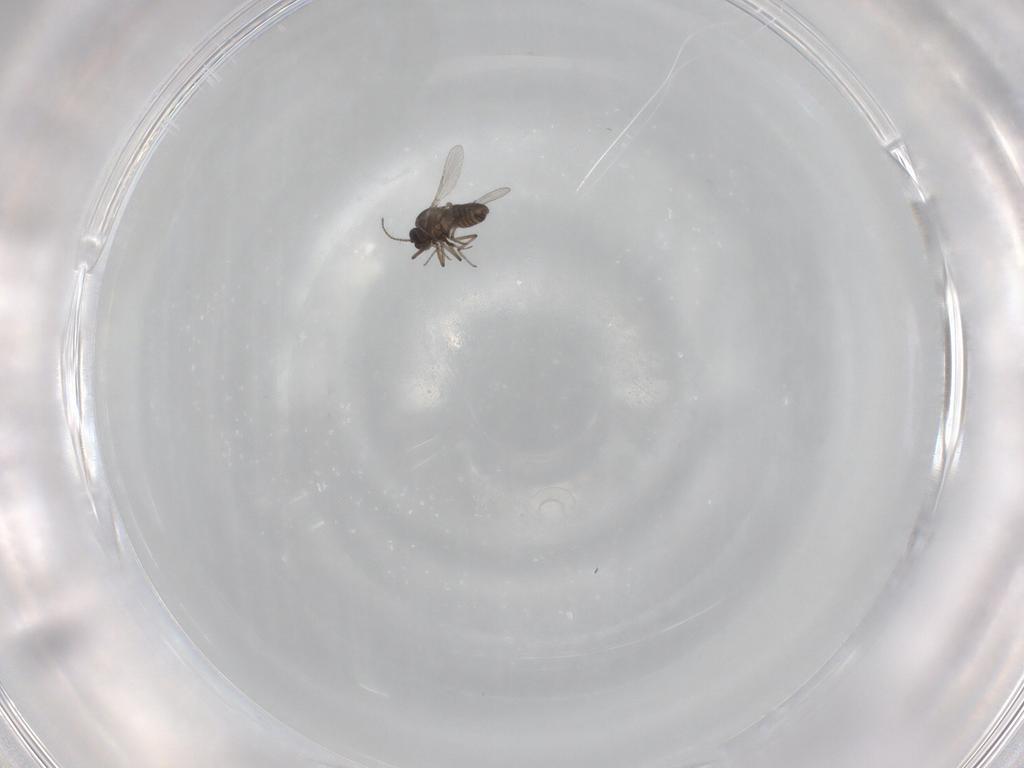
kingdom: Animalia
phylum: Arthropoda
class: Insecta
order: Diptera
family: Ceratopogonidae
